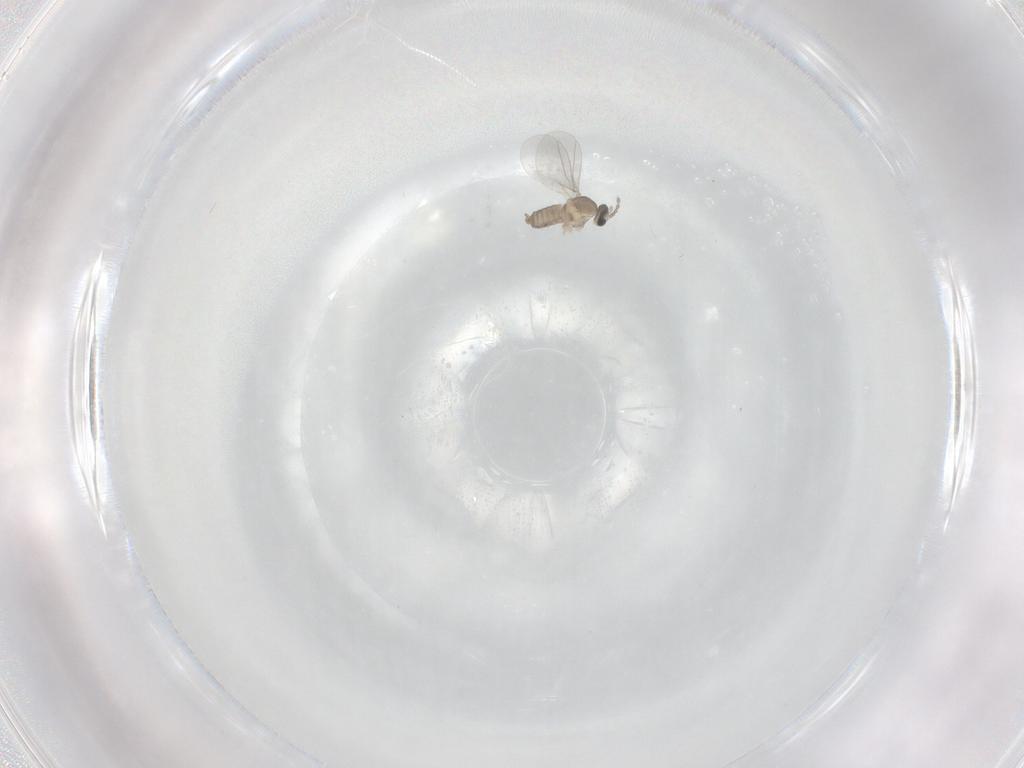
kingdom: Animalia
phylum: Arthropoda
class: Insecta
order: Diptera
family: Cecidomyiidae
